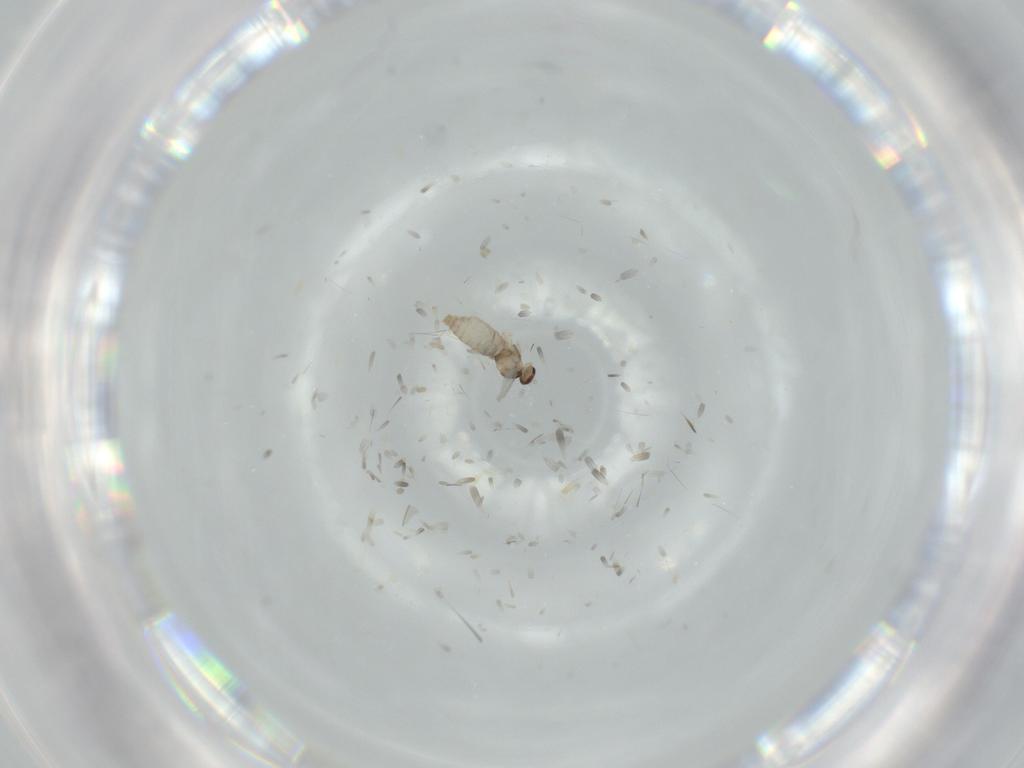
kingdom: Animalia
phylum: Arthropoda
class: Insecta
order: Diptera
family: Cecidomyiidae
